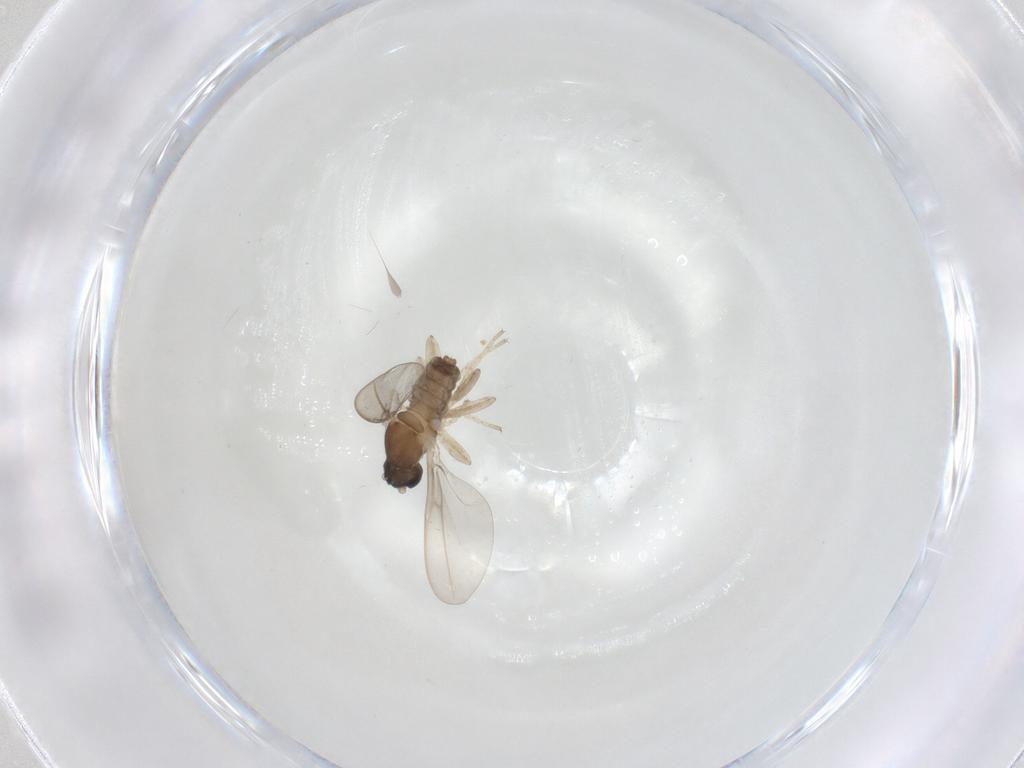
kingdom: Animalia
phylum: Arthropoda
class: Insecta
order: Diptera
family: Cecidomyiidae
